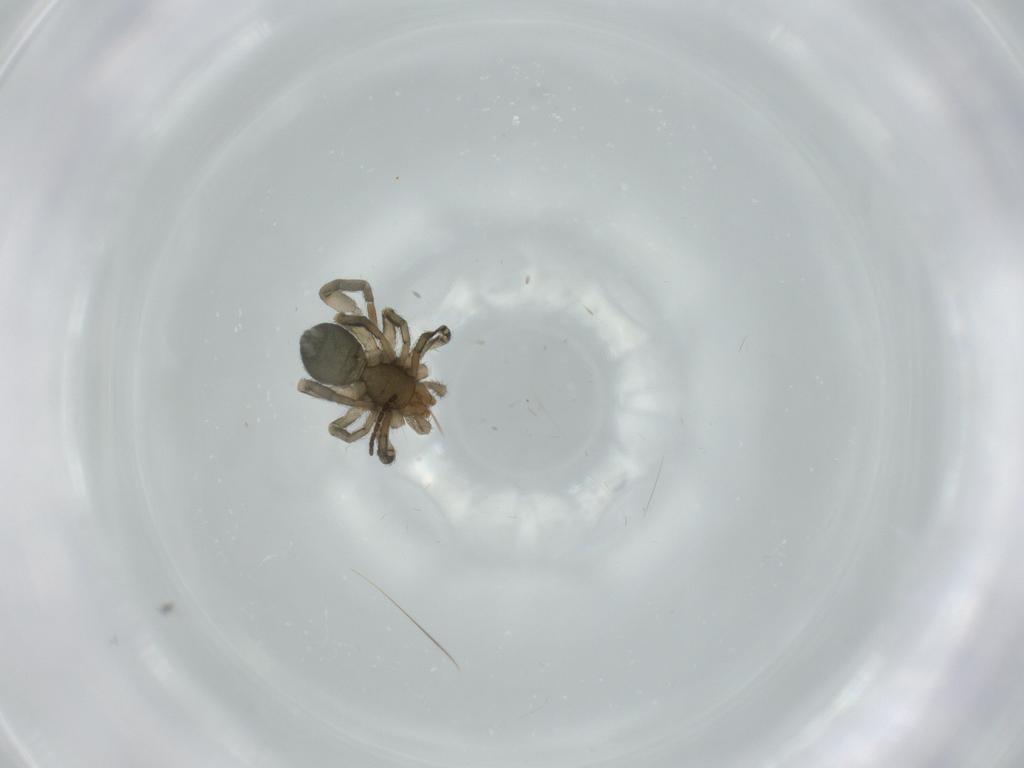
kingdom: Animalia
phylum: Arthropoda
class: Arachnida
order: Araneae
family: Gnaphosidae
